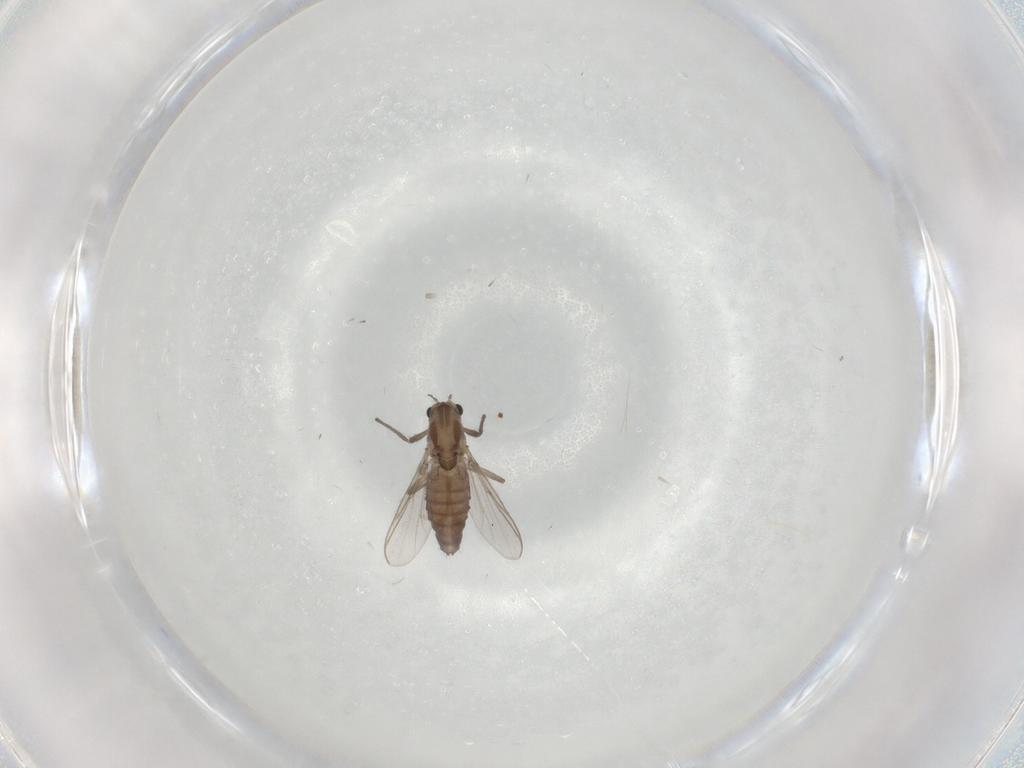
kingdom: Animalia
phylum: Arthropoda
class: Insecta
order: Diptera
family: Chironomidae
